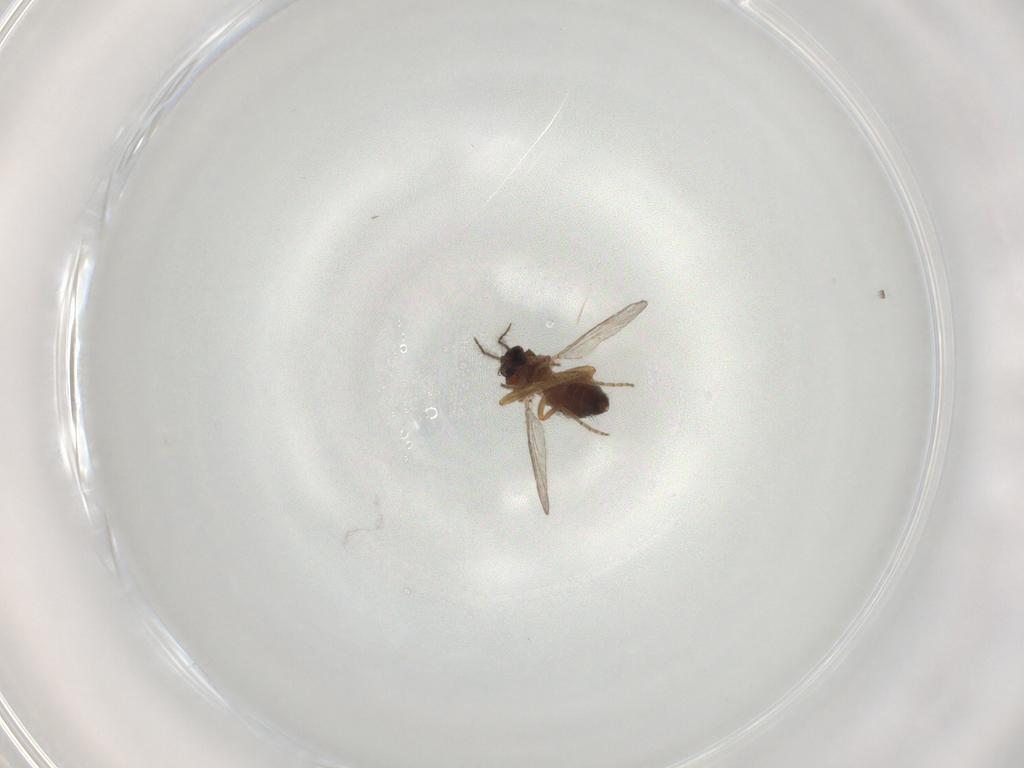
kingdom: Animalia
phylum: Arthropoda
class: Insecta
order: Diptera
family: Ceratopogonidae
